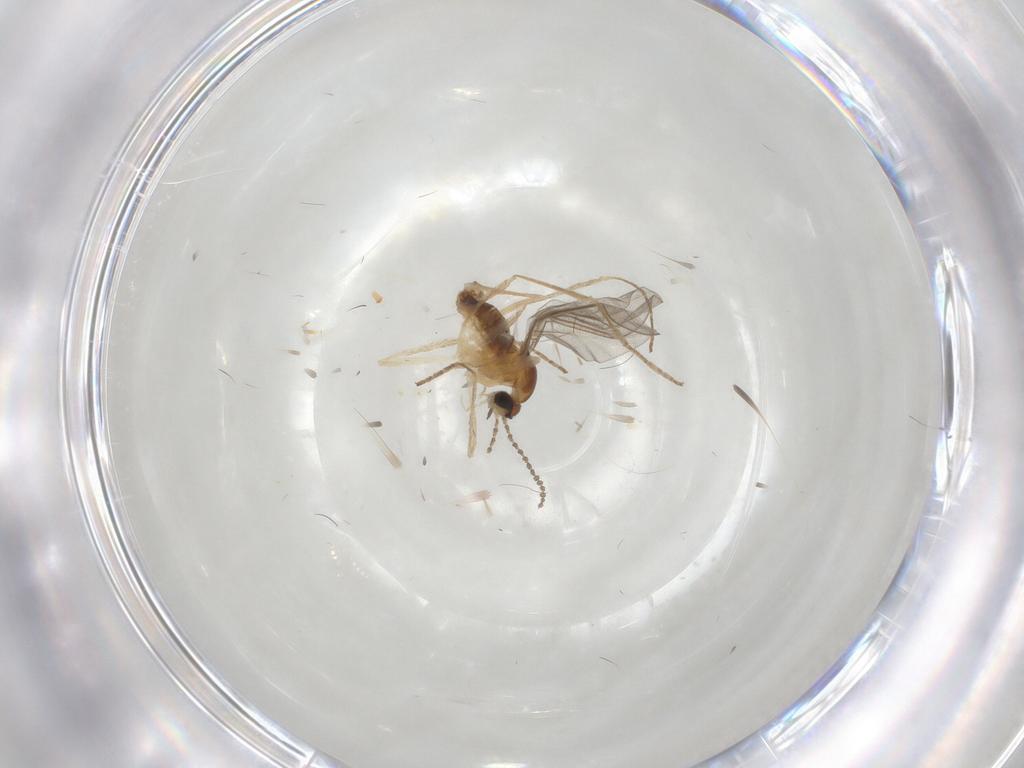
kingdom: Animalia
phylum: Arthropoda
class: Insecta
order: Diptera
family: Cecidomyiidae
